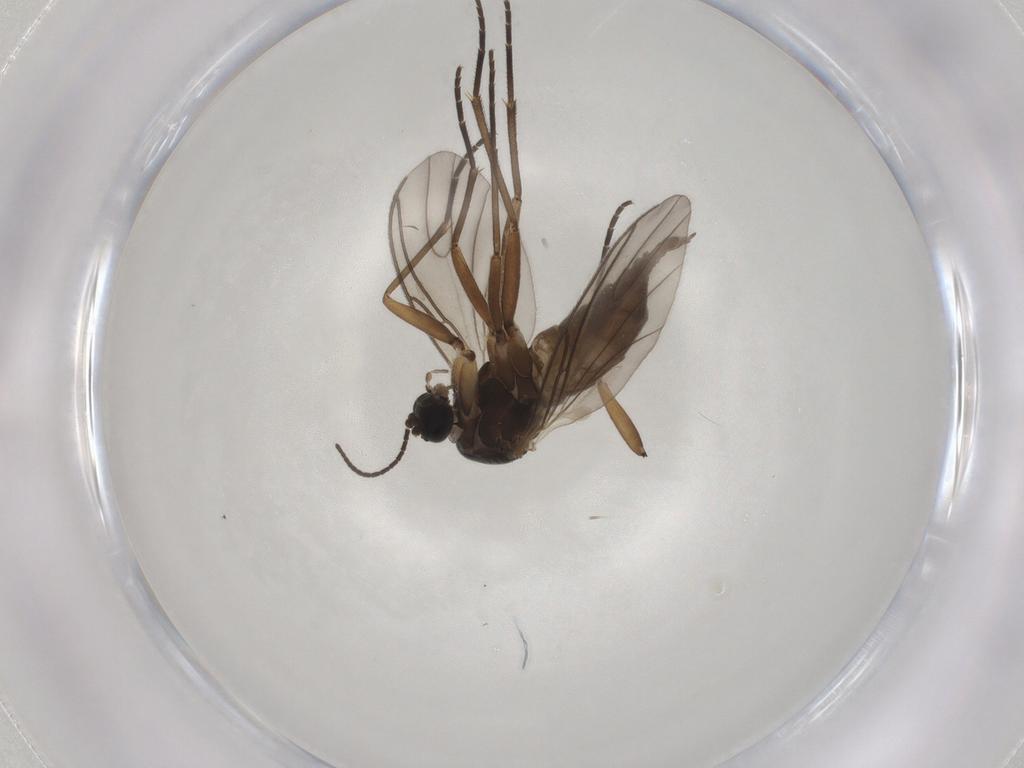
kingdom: Animalia
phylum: Arthropoda
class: Insecta
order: Diptera
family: Sciaridae
